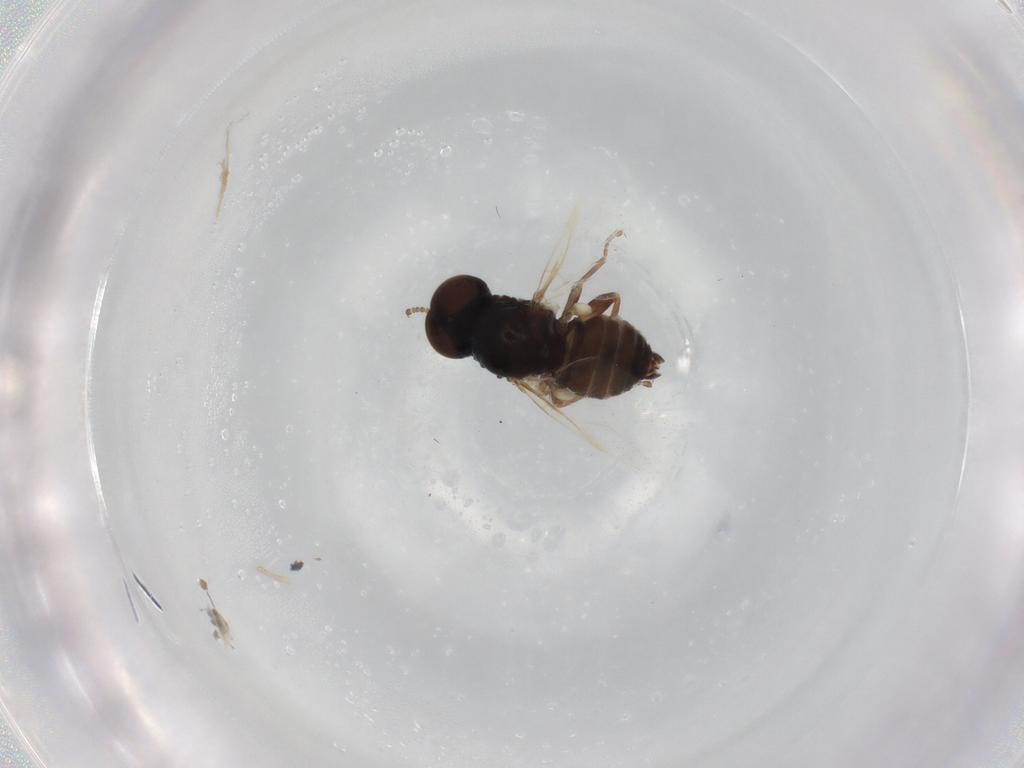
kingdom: Animalia
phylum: Arthropoda
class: Insecta
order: Diptera
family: Scenopinidae
